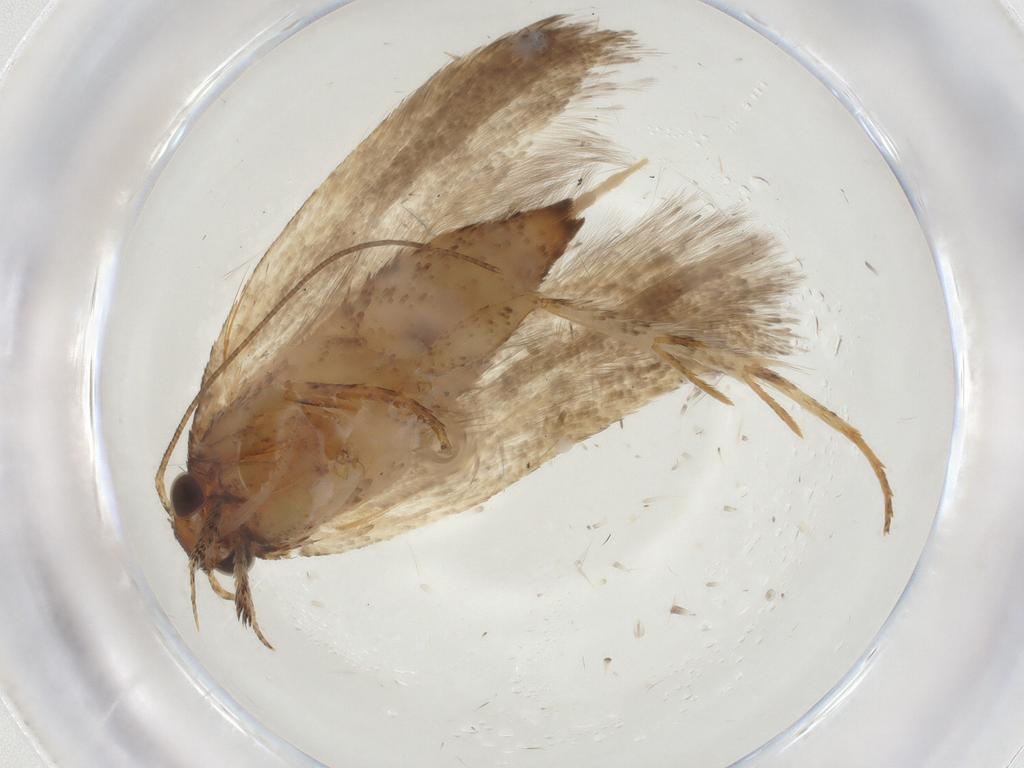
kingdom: Animalia
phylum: Arthropoda
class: Insecta
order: Lepidoptera
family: Gelechiidae
